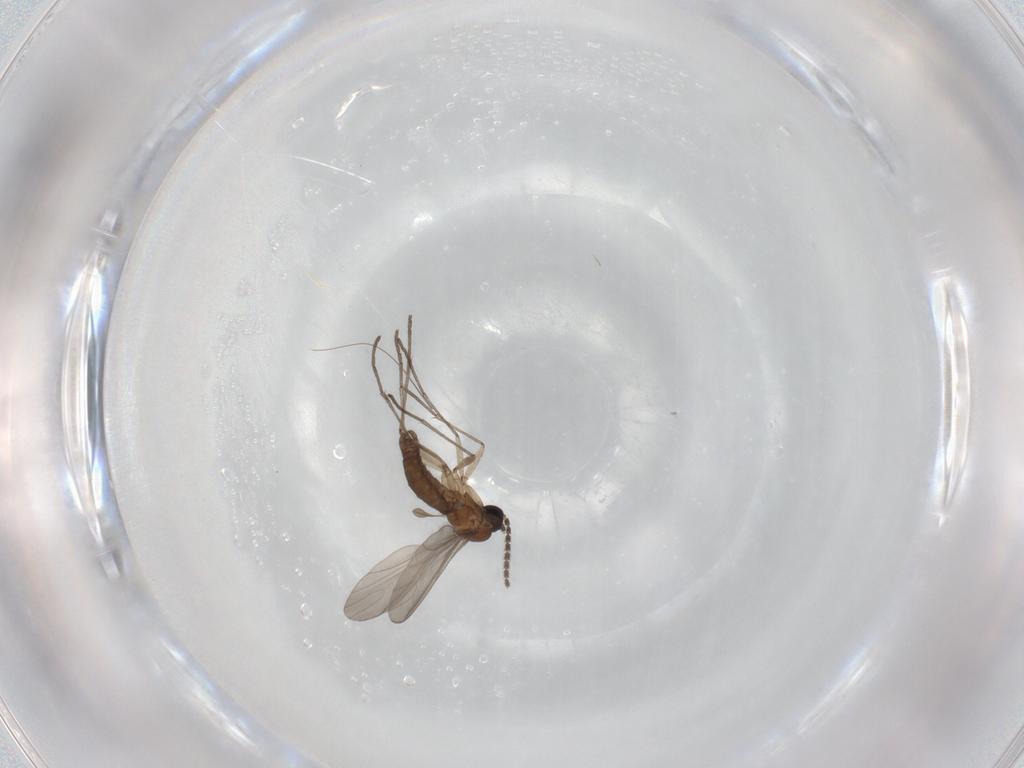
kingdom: Animalia
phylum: Arthropoda
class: Insecta
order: Diptera
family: Sciaridae
